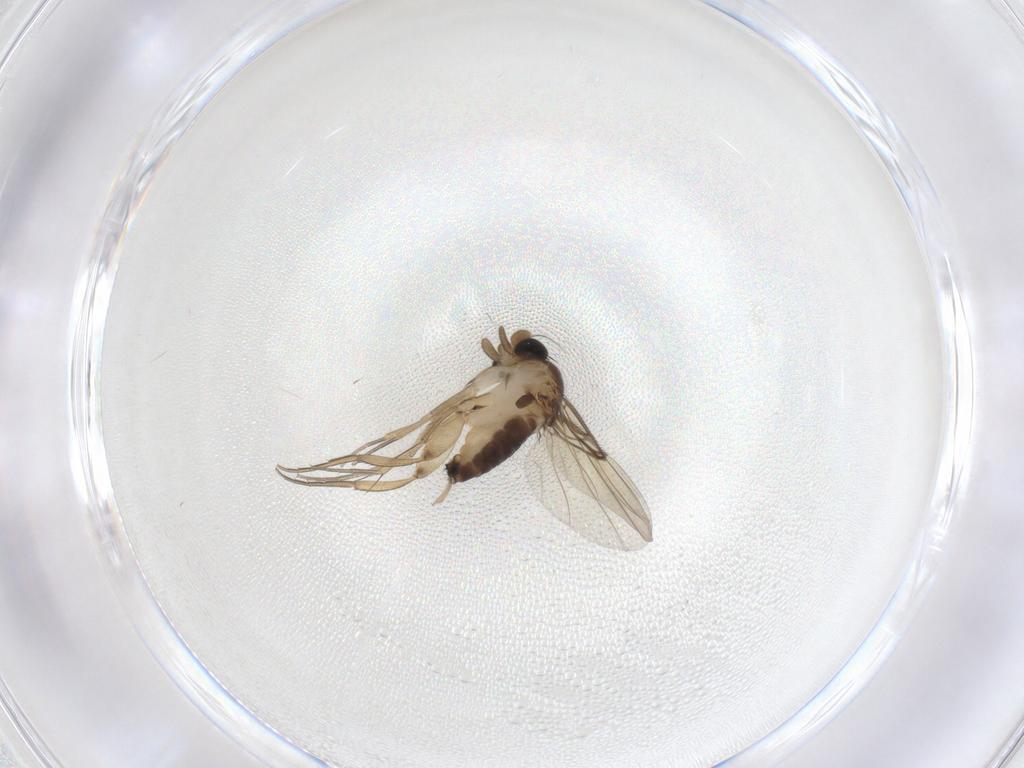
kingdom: Animalia
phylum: Arthropoda
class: Insecta
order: Diptera
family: Phoridae
